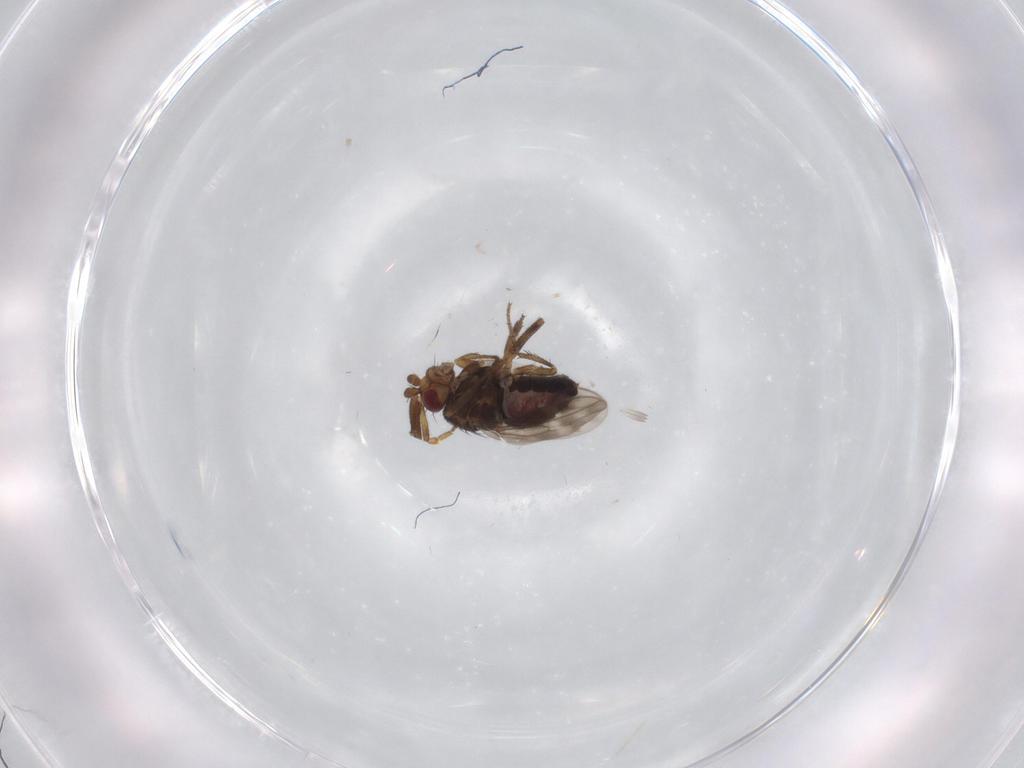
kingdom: Animalia
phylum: Arthropoda
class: Insecta
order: Diptera
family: Sphaeroceridae
